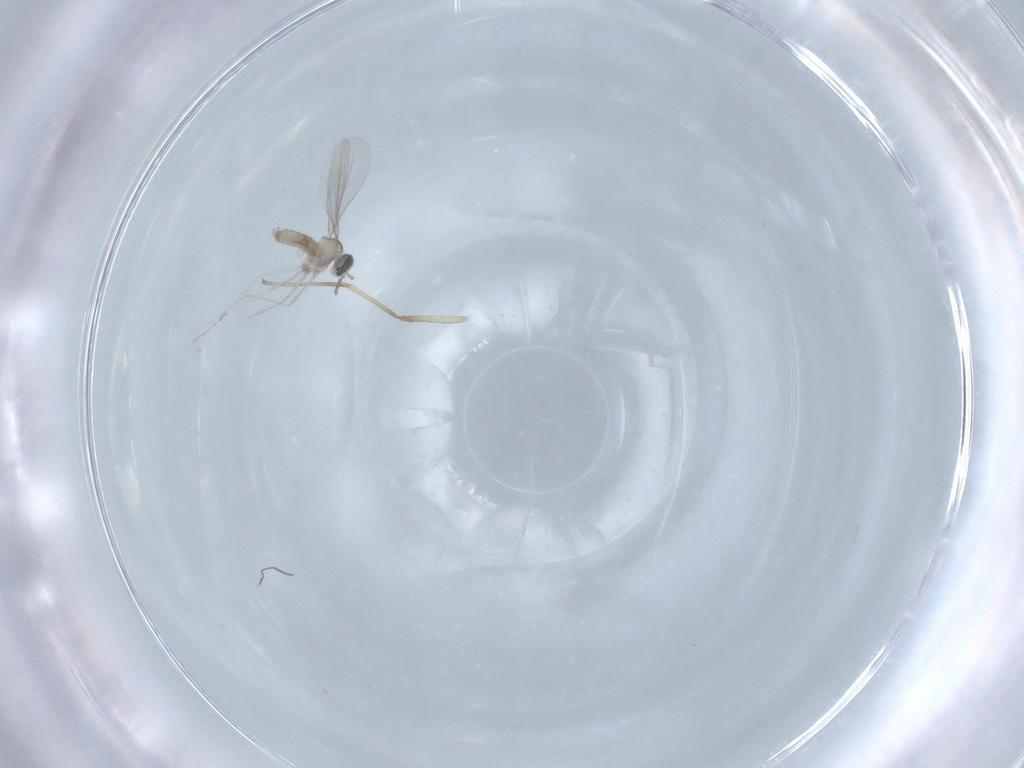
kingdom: Animalia
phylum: Arthropoda
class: Insecta
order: Diptera
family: Cecidomyiidae
